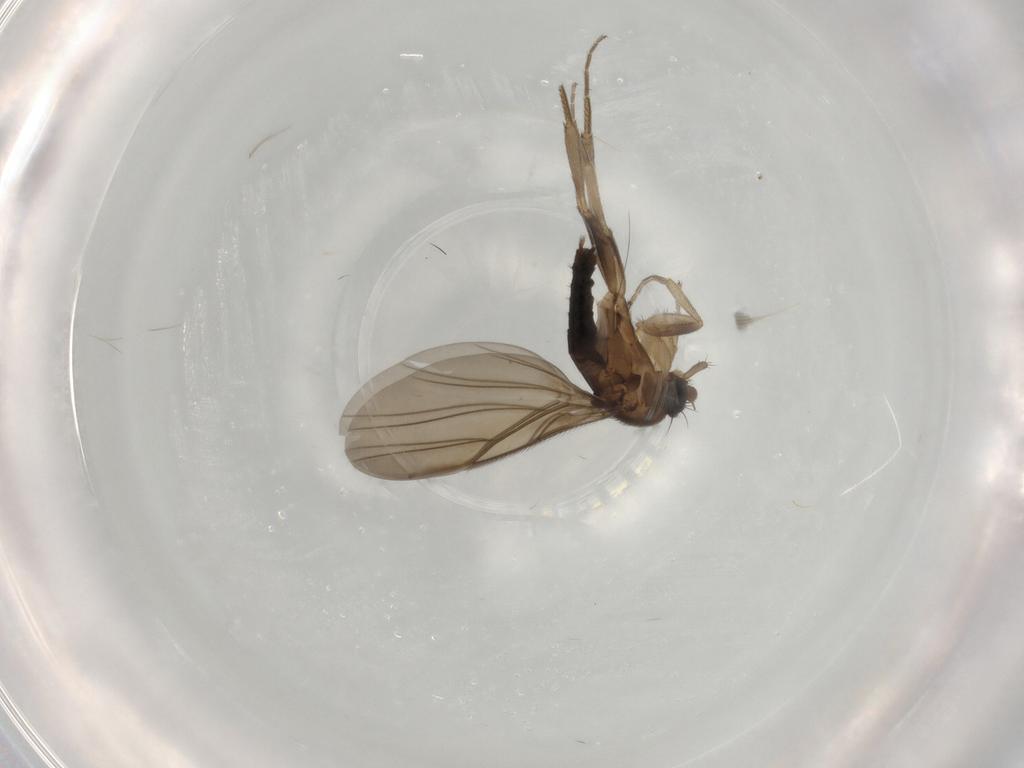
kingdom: Animalia
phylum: Arthropoda
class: Insecta
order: Diptera
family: Phoridae
